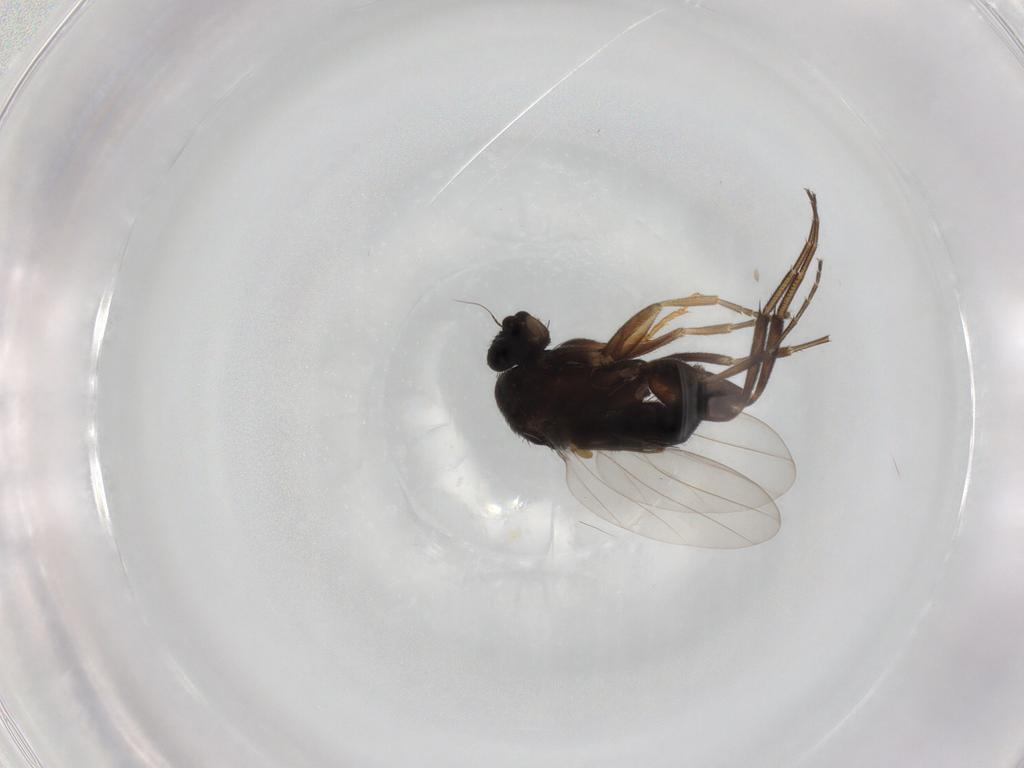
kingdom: Animalia
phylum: Arthropoda
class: Insecta
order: Diptera
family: Phoridae
